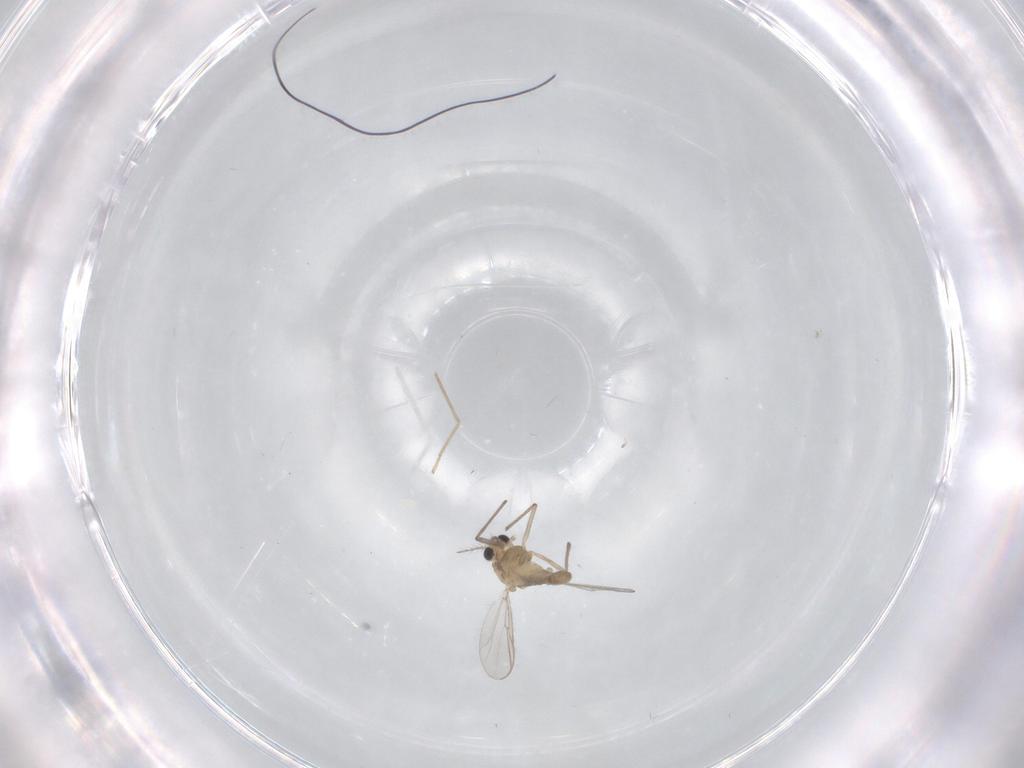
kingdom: Animalia
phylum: Arthropoda
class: Insecta
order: Diptera
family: Chironomidae
